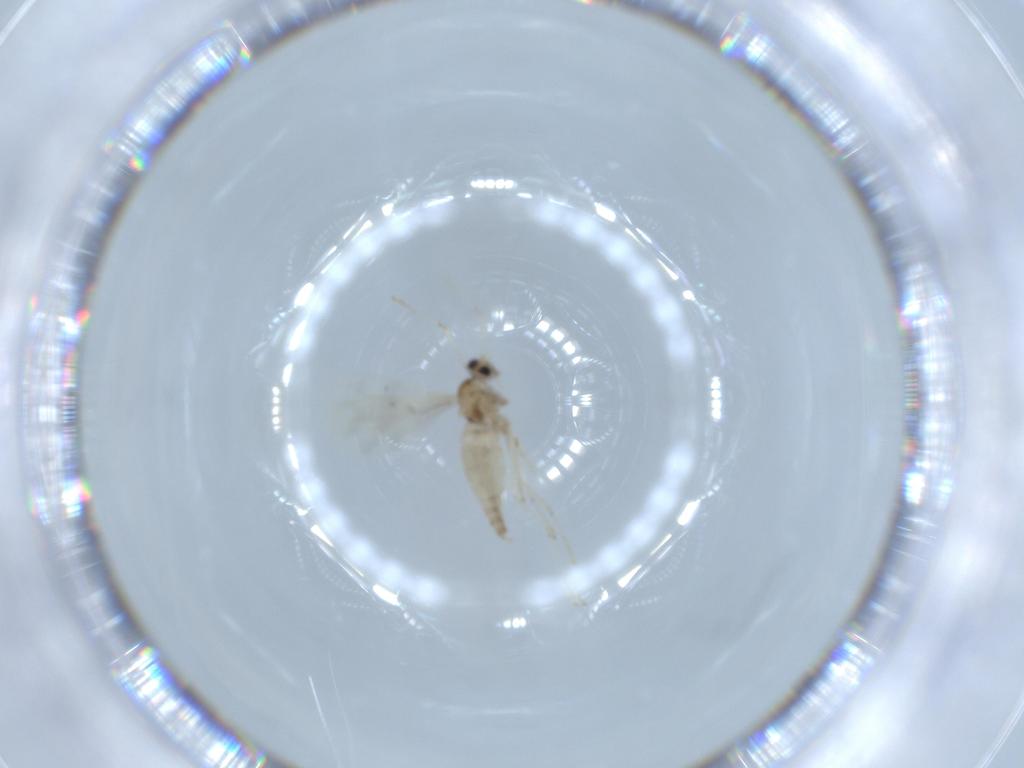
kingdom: Animalia
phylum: Arthropoda
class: Insecta
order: Diptera
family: Cecidomyiidae
